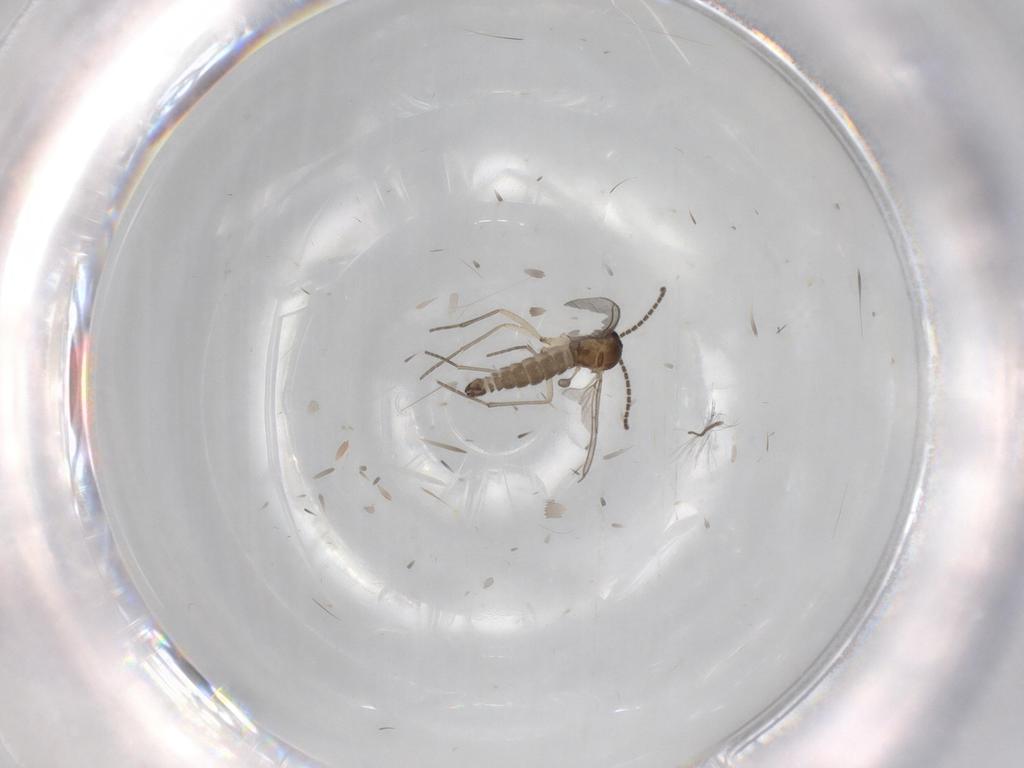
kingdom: Animalia
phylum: Arthropoda
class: Insecta
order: Diptera
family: Sciaridae
